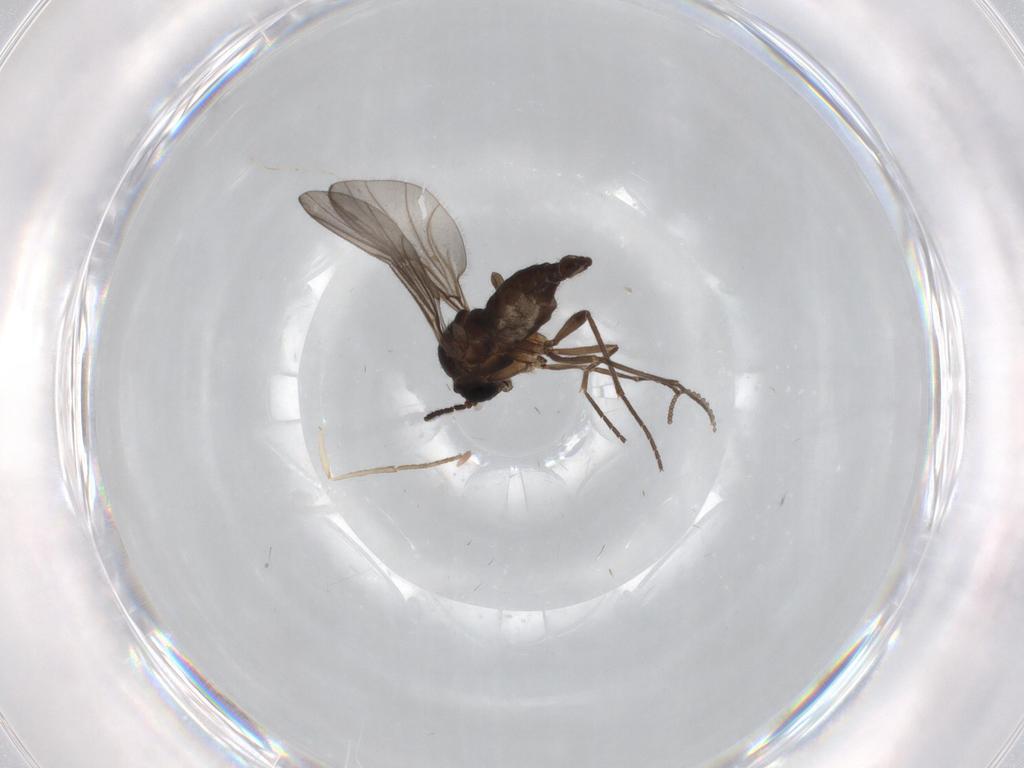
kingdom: Animalia
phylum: Arthropoda
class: Insecta
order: Diptera
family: Sciaridae
